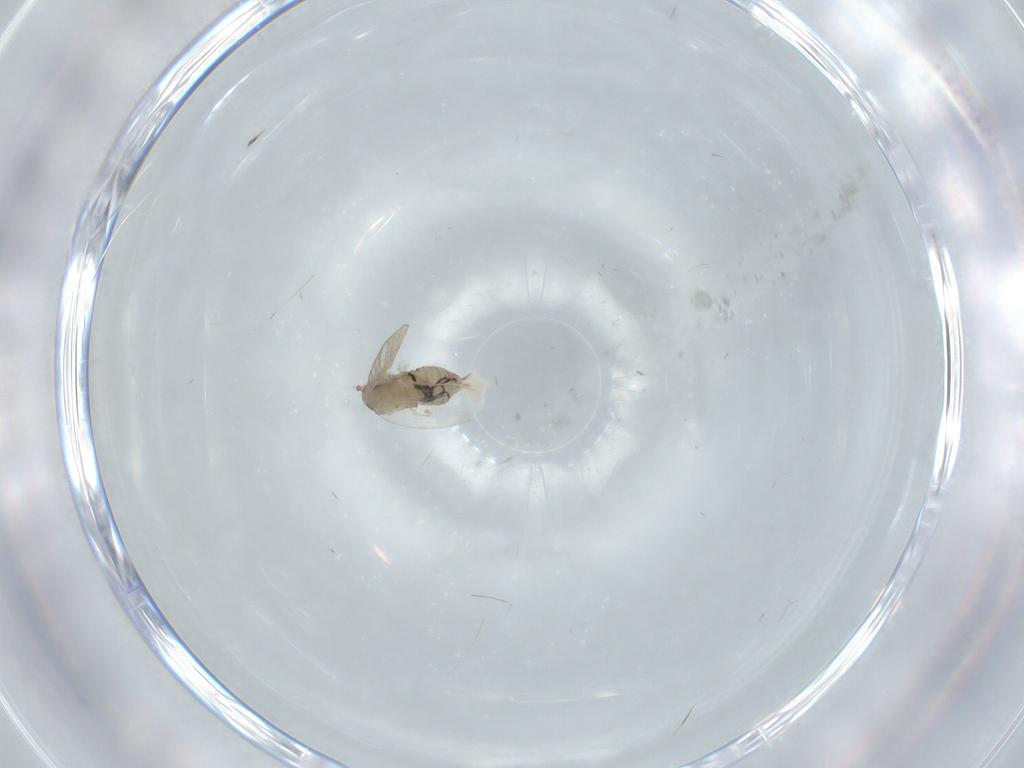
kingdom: Animalia
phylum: Arthropoda
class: Insecta
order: Diptera
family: Psychodidae
